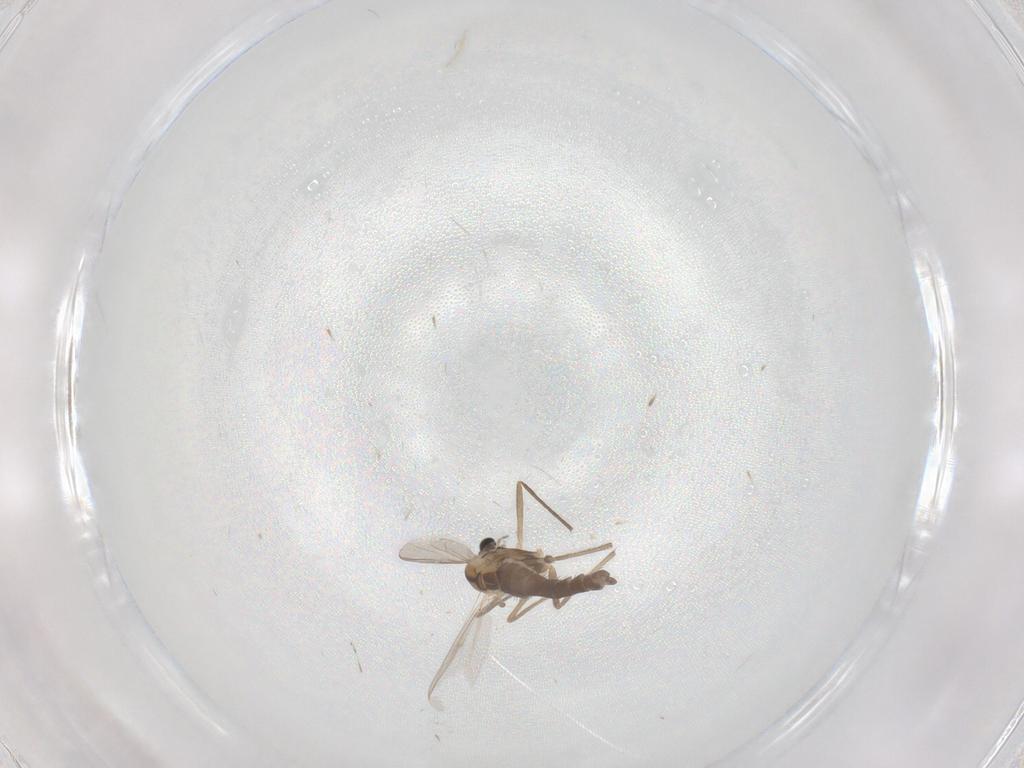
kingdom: Animalia
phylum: Arthropoda
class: Insecta
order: Diptera
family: Chironomidae
